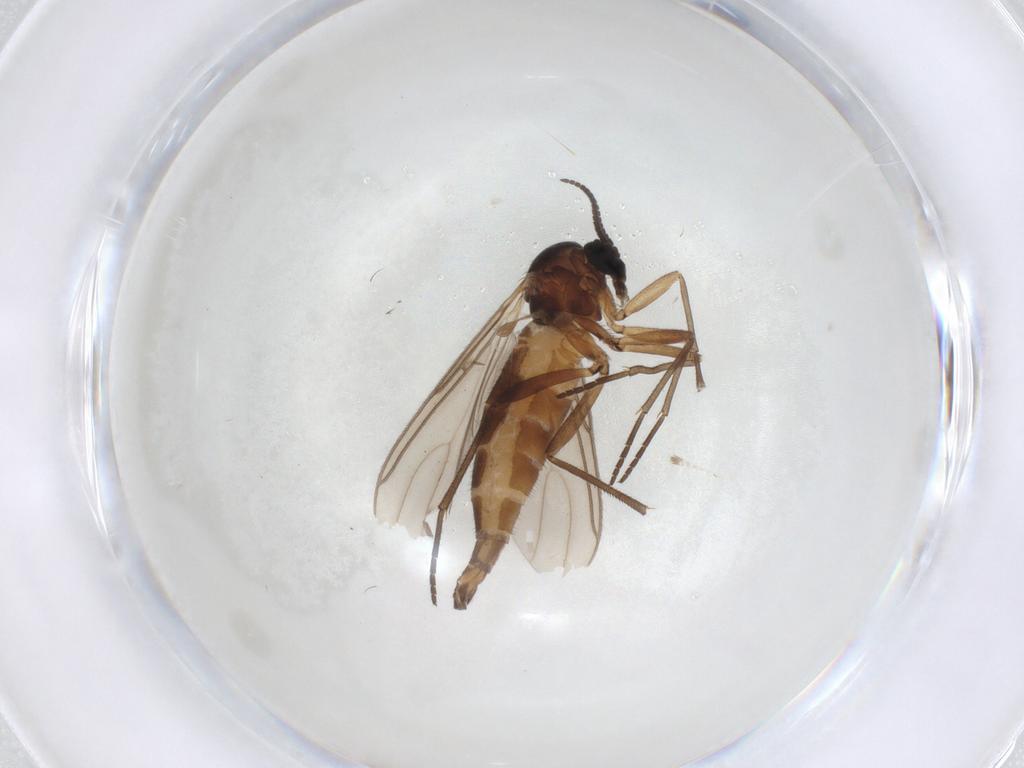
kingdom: Animalia
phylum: Arthropoda
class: Insecta
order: Diptera
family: Sciaridae
